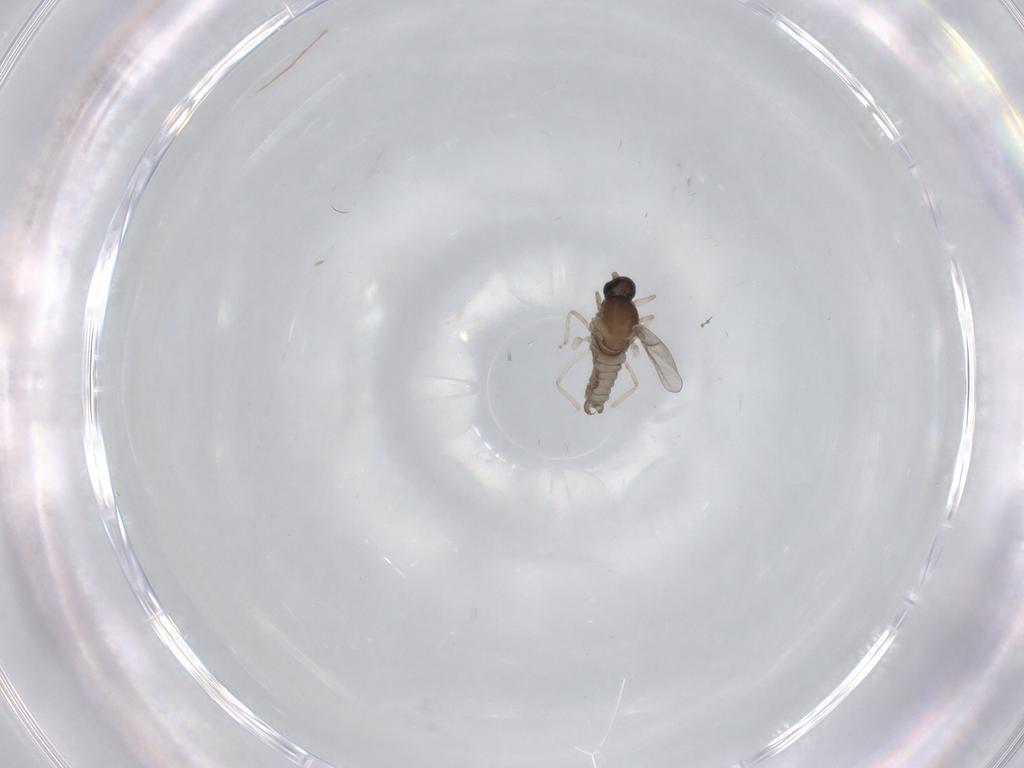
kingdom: Animalia
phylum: Arthropoda
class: Insecta
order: Diptera
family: Cecidomyiidae
